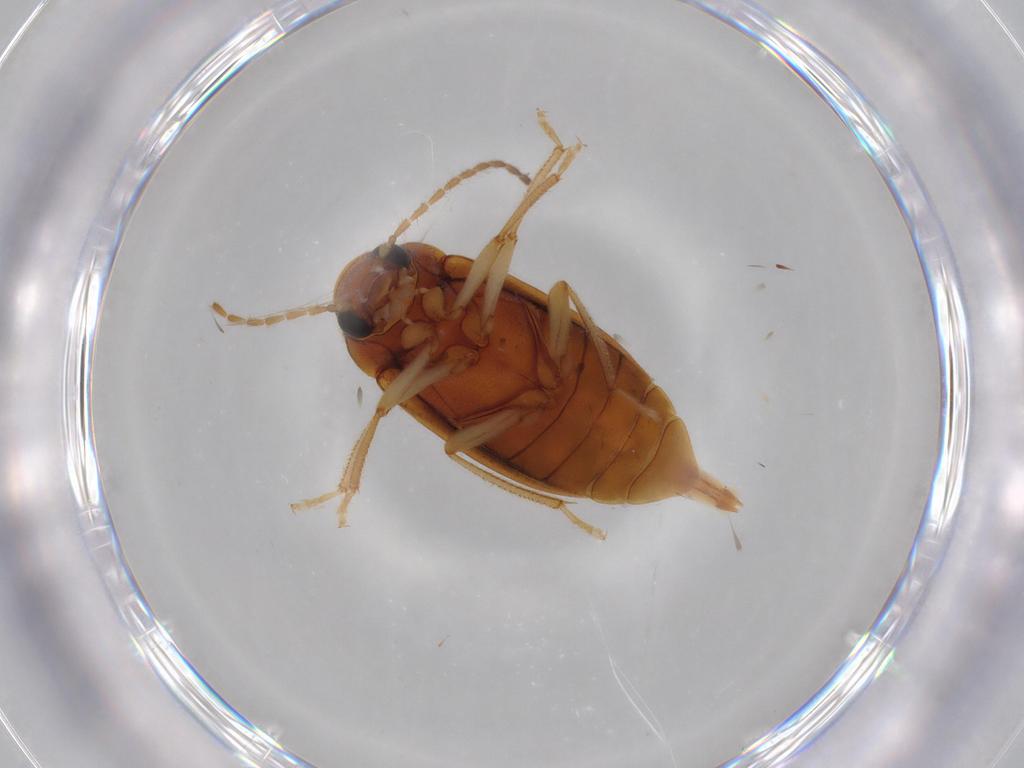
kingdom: Animalia
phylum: Arthropoda
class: Insecta
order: Coleoptera
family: Ptilodactylidae
